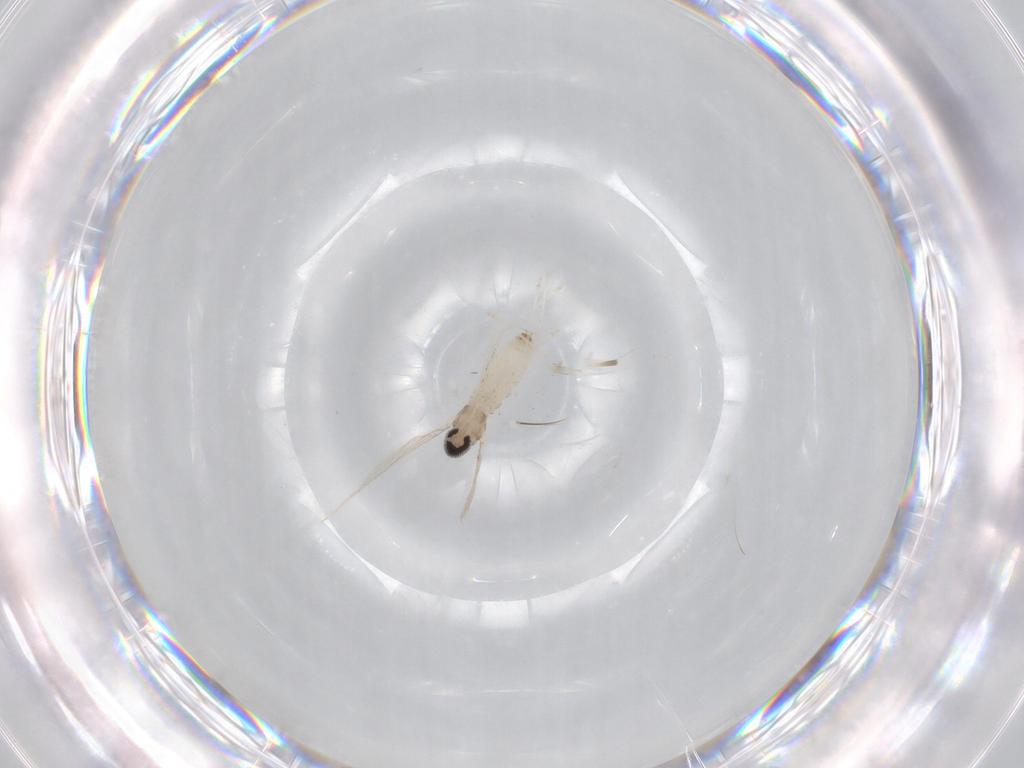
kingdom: Animalia
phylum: Arthropoda
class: Insecta
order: Diptera
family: Cecidomyiidae
